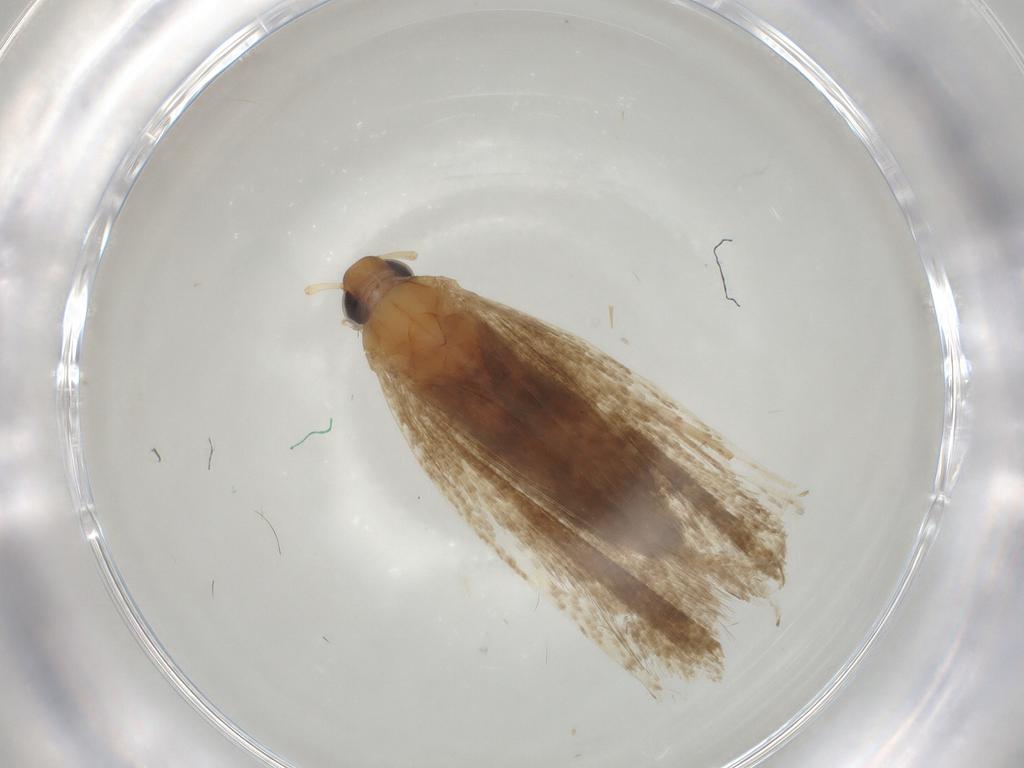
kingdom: Animalia
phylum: Arthropoda
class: Insecta
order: Lepidoptera
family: Lecithoceridae
